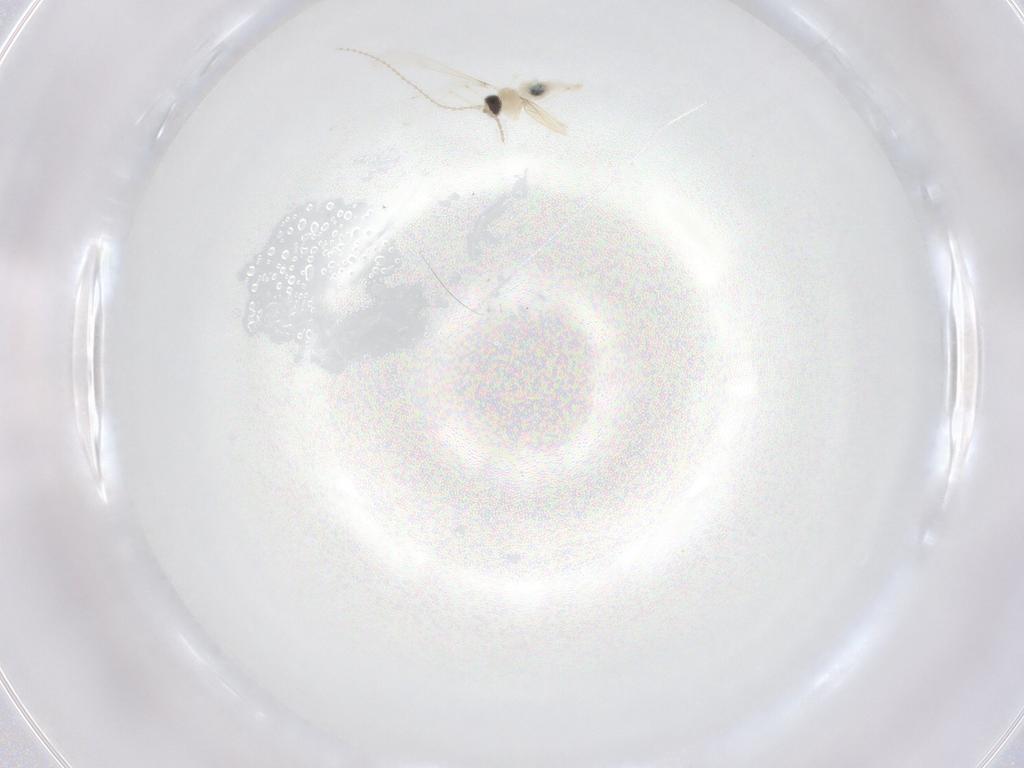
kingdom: Animalia
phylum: Arthropoda
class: Insecta
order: Diptera
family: Cecidomyiidae
